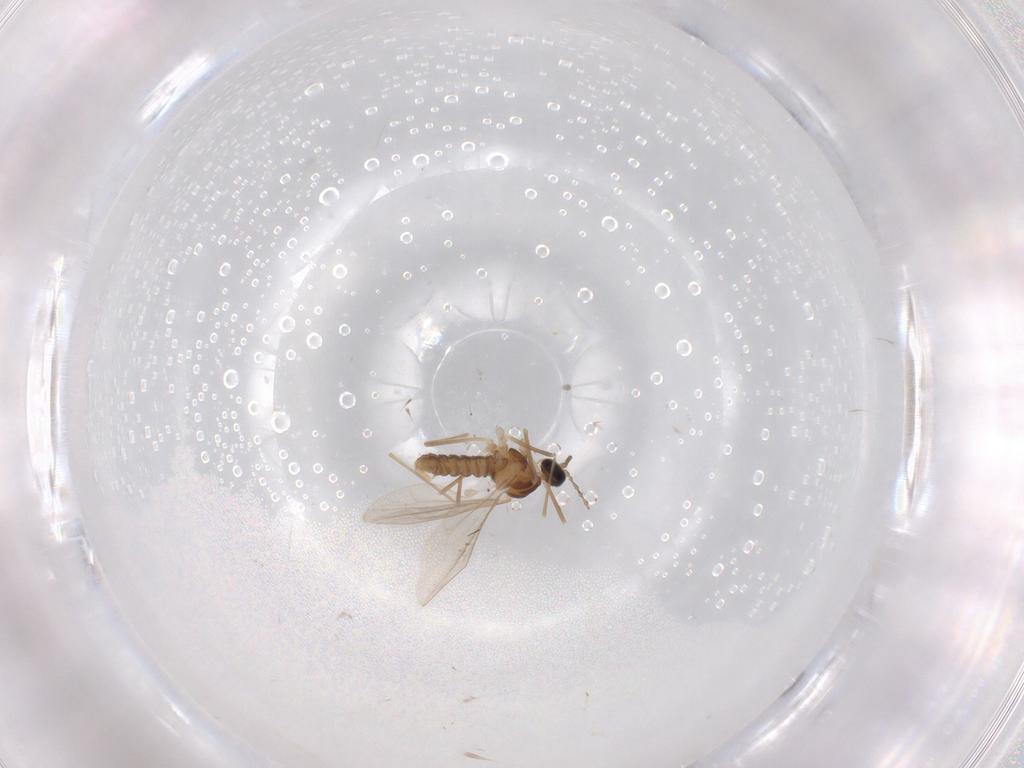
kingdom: Animalia
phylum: Arthropoda
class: Insecta
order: Diptera
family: Cecidomyiidae
